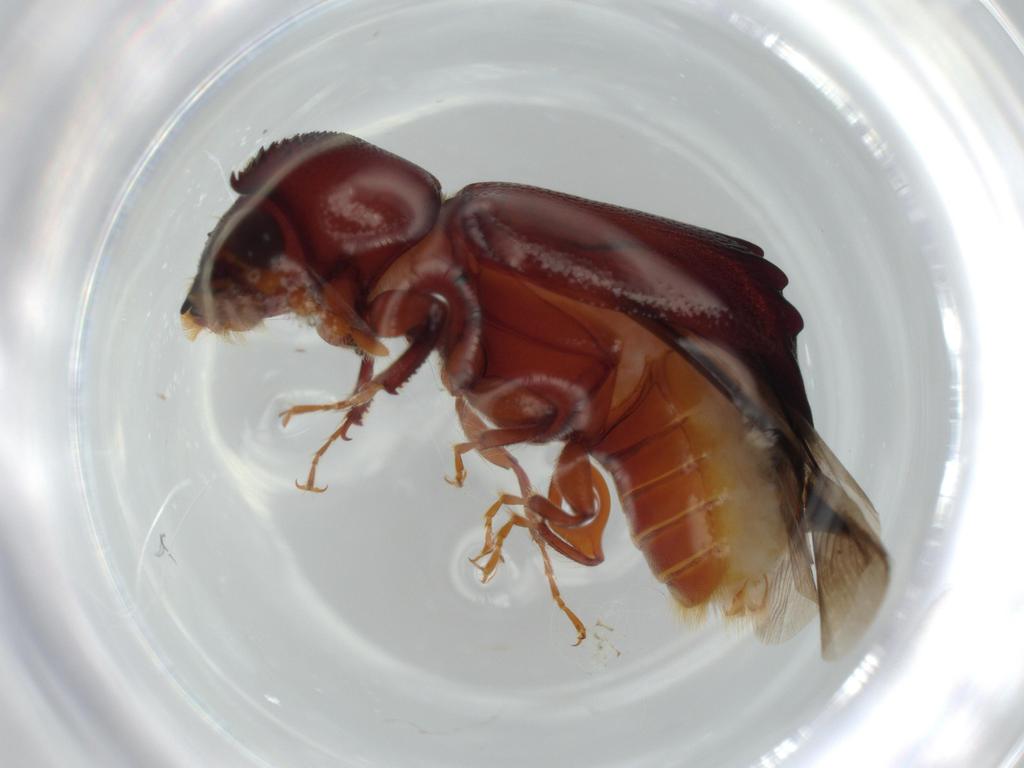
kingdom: Animalia
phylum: Arthropoda
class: Insecta
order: Coleoptera
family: Bostrichidae
